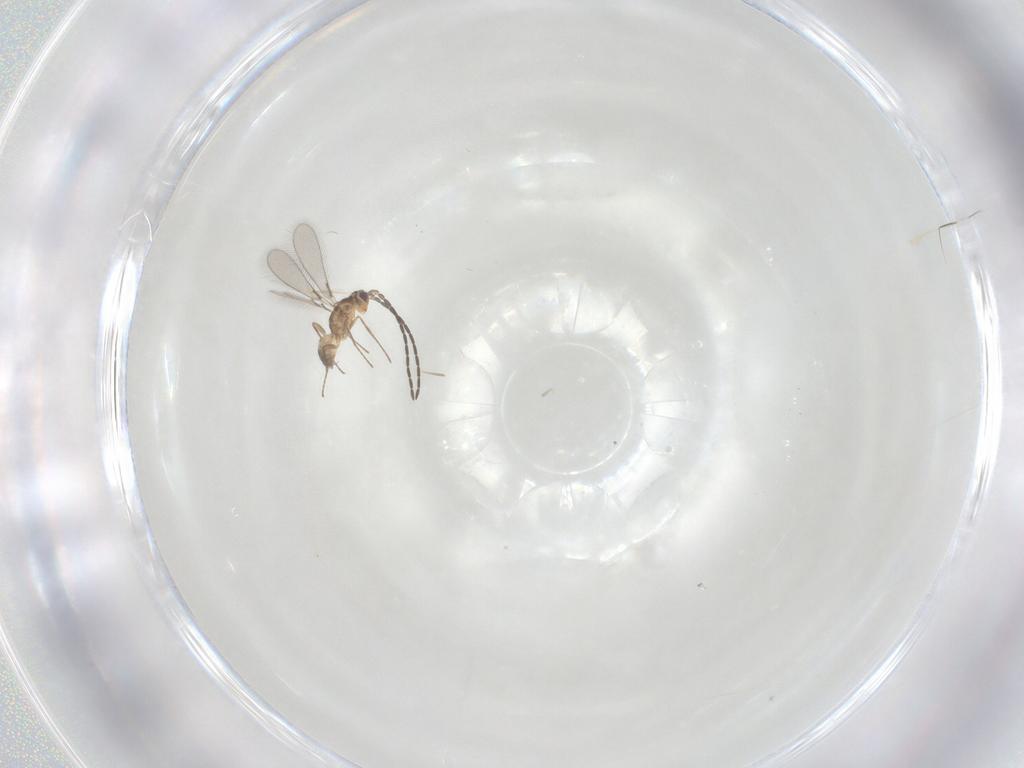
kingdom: Animalia
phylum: Arthropoda
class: Insecta
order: Hymenoptera
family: Mymaridae
